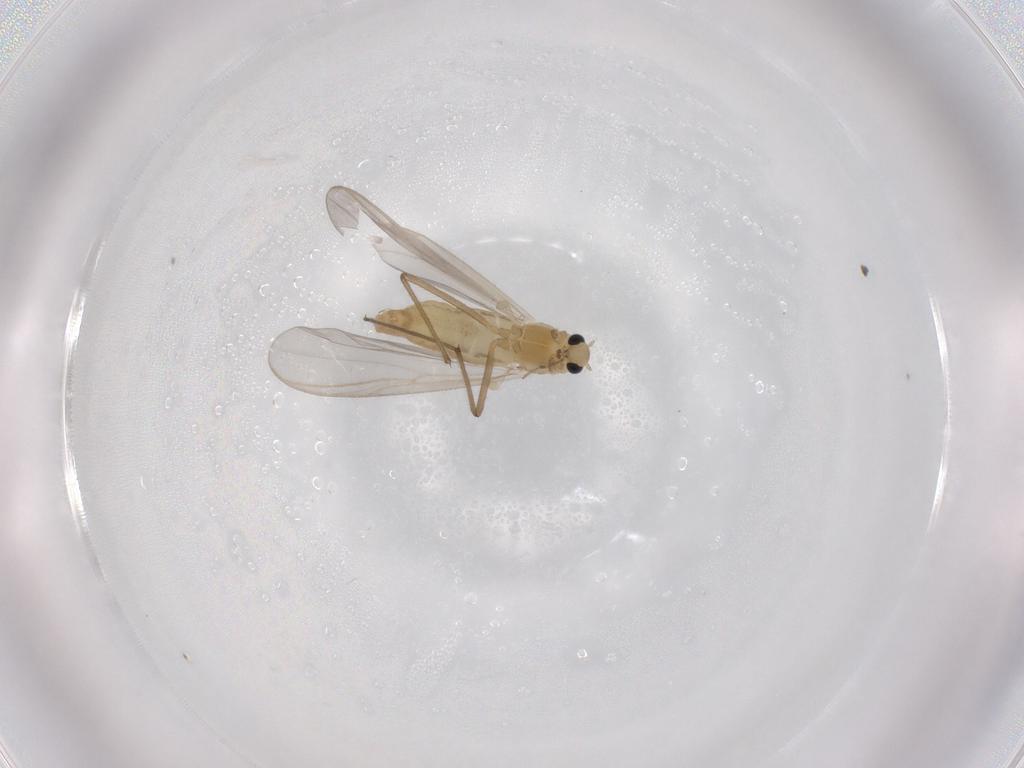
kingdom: Animalia
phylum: Arthropoda
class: Insecta
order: Diptera
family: Chironomidae
